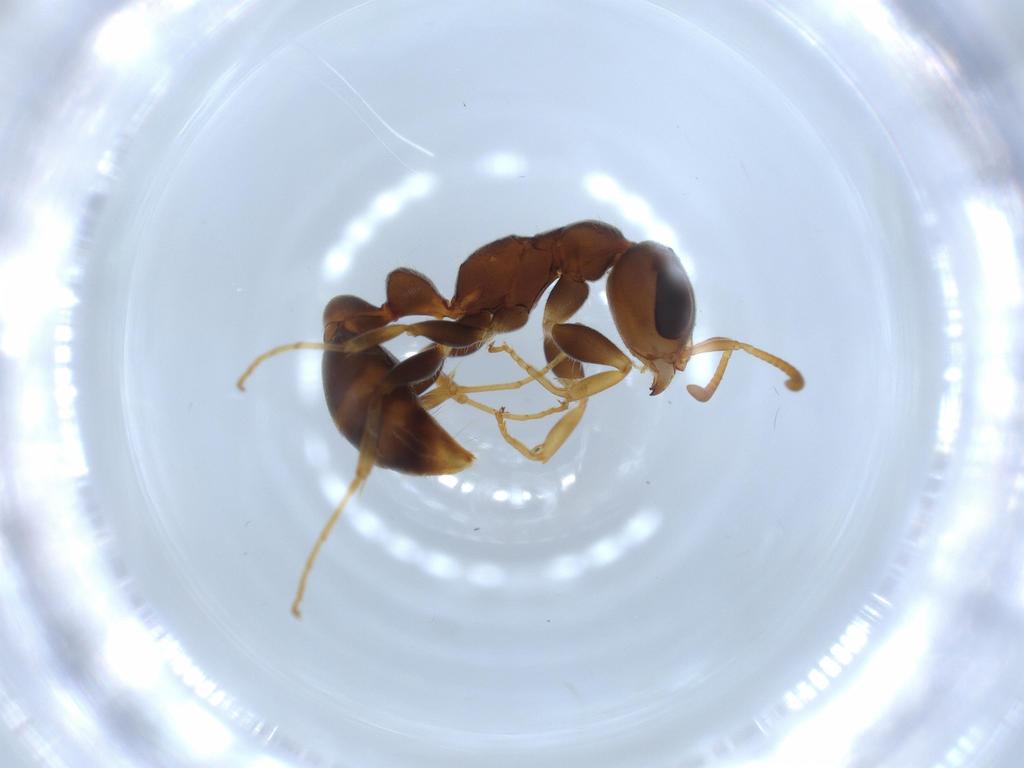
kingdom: Animalia
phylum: Arthropoda
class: Insecta
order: Hymenoptera
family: Formicidae
